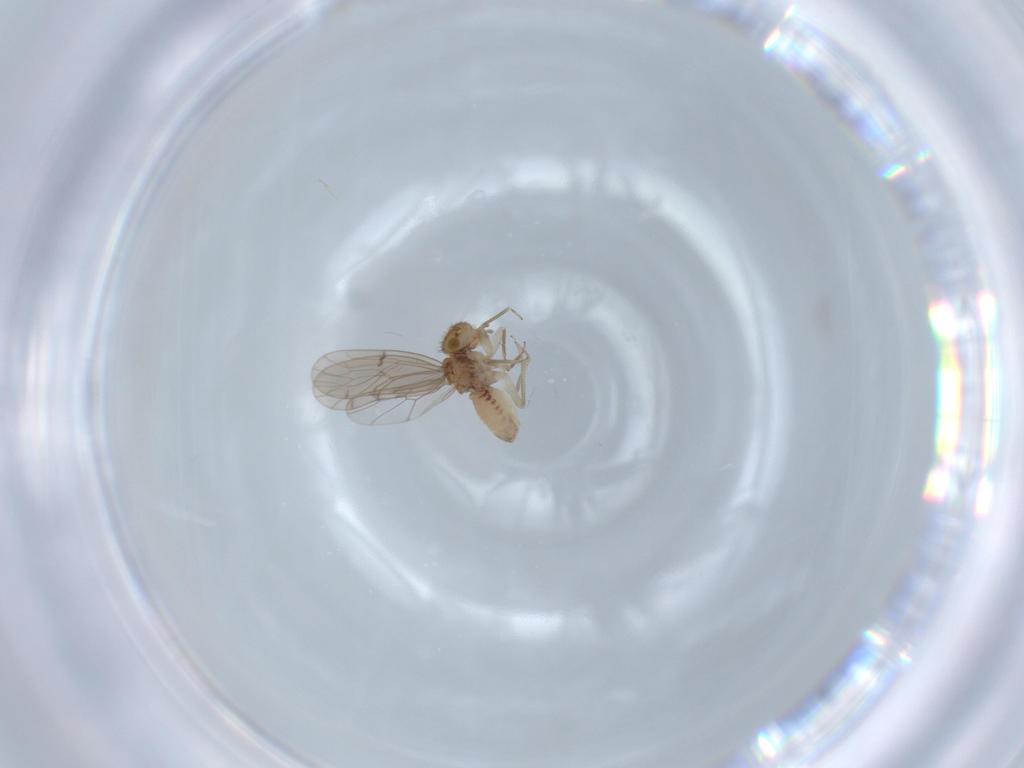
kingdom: Animalia
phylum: Arthropoda
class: Insecta
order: Psocodea
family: Ectopsocidae
